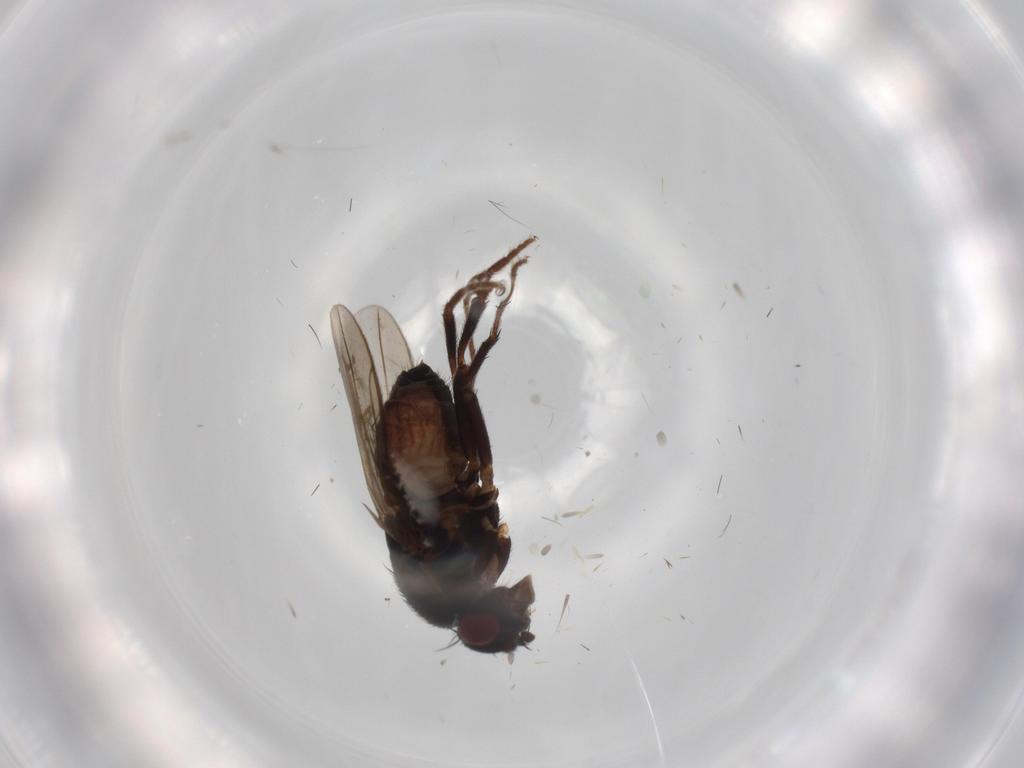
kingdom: Animalia
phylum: Arthropoda
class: Insecta
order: Diptera
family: Sphaeroceridae
